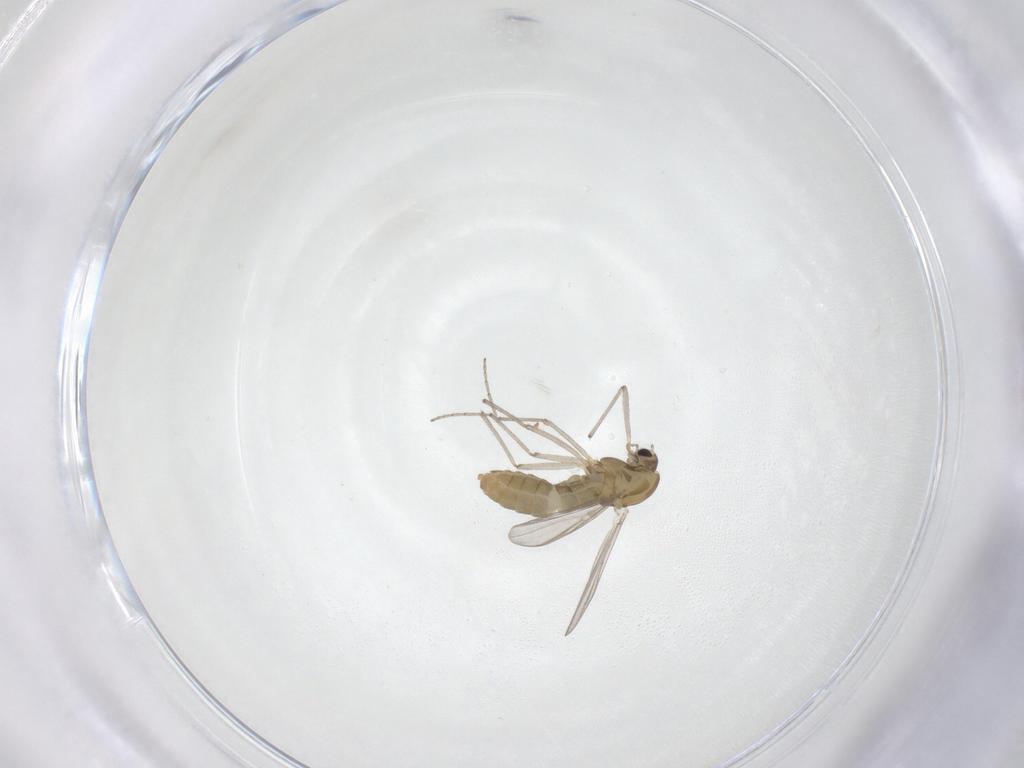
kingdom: Animalia
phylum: Arthropoda
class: Insecta
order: Diptera
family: Chironomidae
